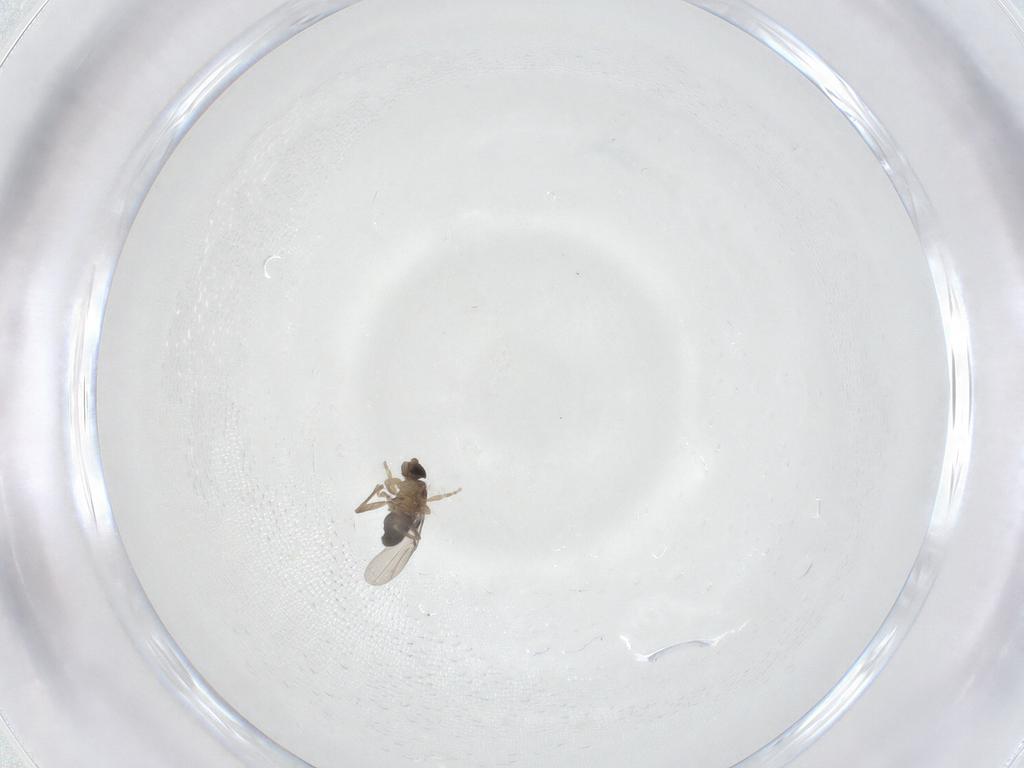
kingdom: Animalia
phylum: Arthropoda
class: Insecta
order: Diptera
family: Phoridae
